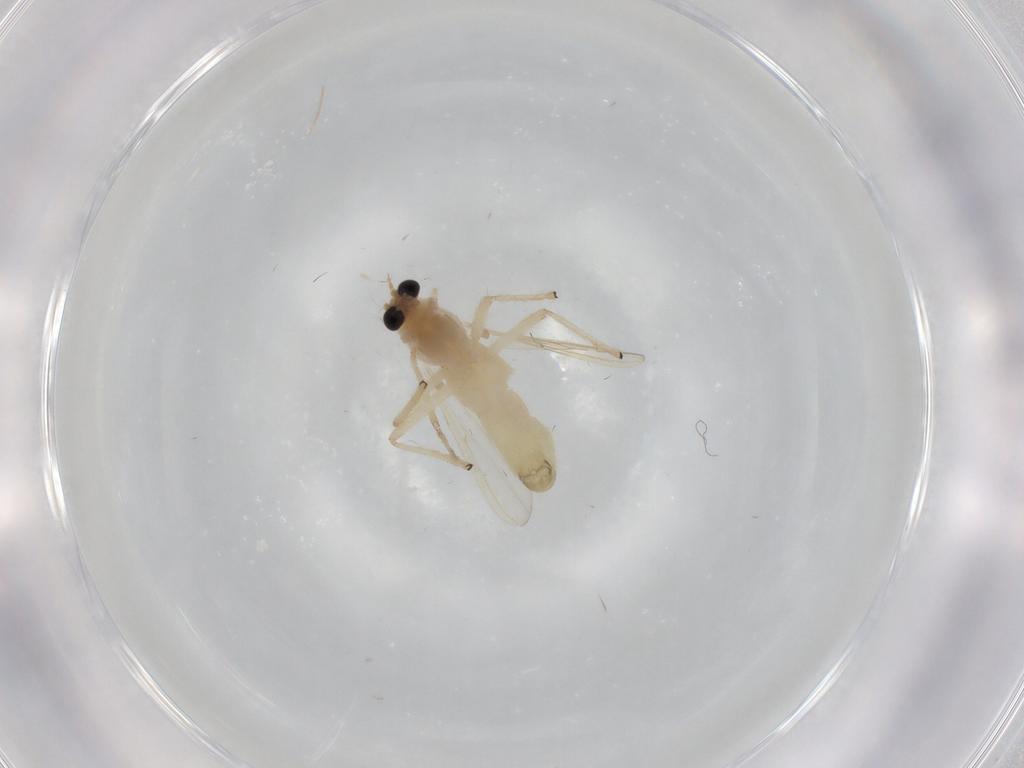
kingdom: Animalia
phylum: Arthropoda
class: Insecta
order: Diptera
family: Chironomidae
